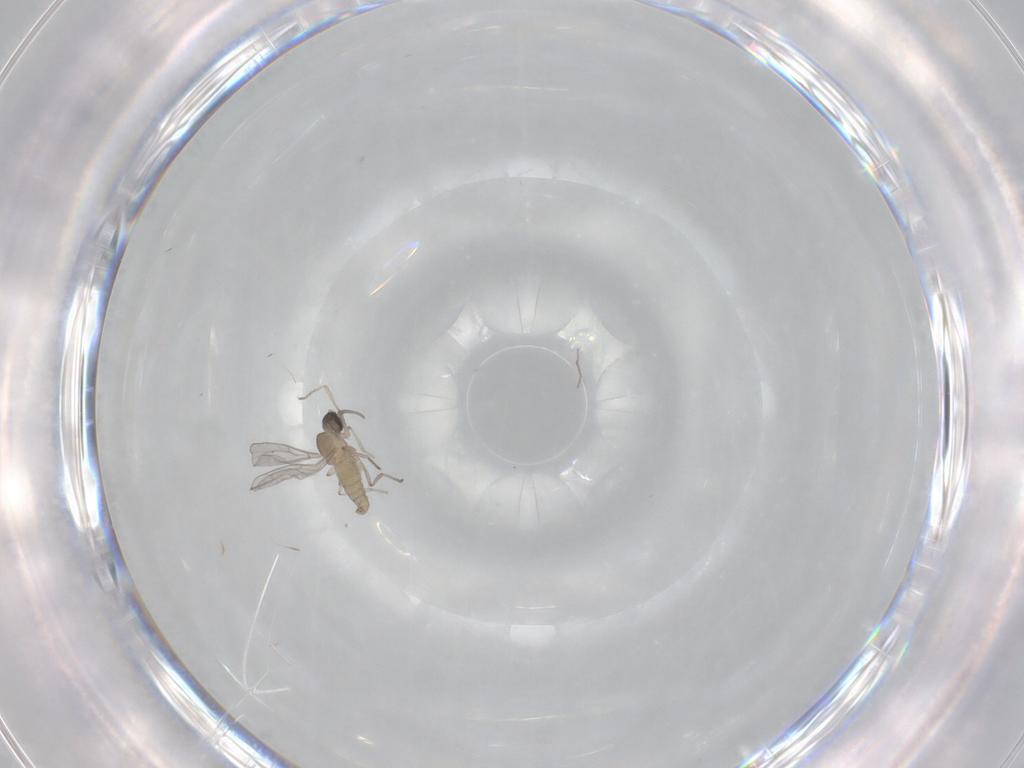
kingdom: Animalia
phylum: Arthropoda
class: Insecta
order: Diptera
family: Cecidomyiidae
